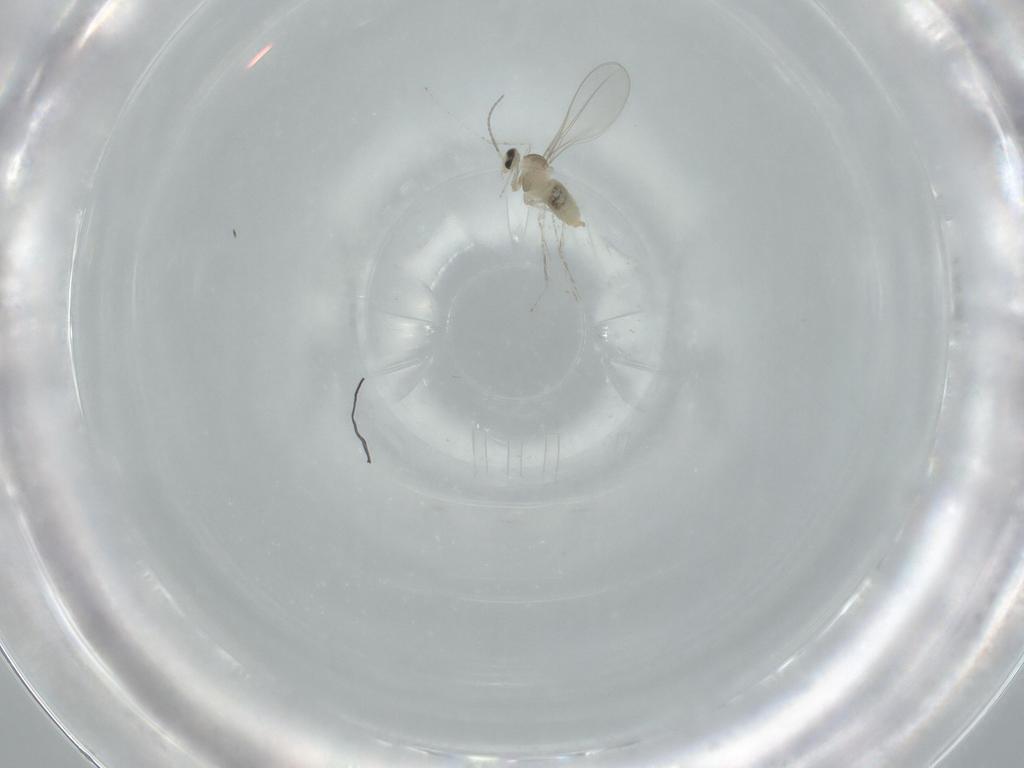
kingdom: Animalia
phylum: Arthropoda
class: Insecta
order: Diptera
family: Cecidomyiidae
